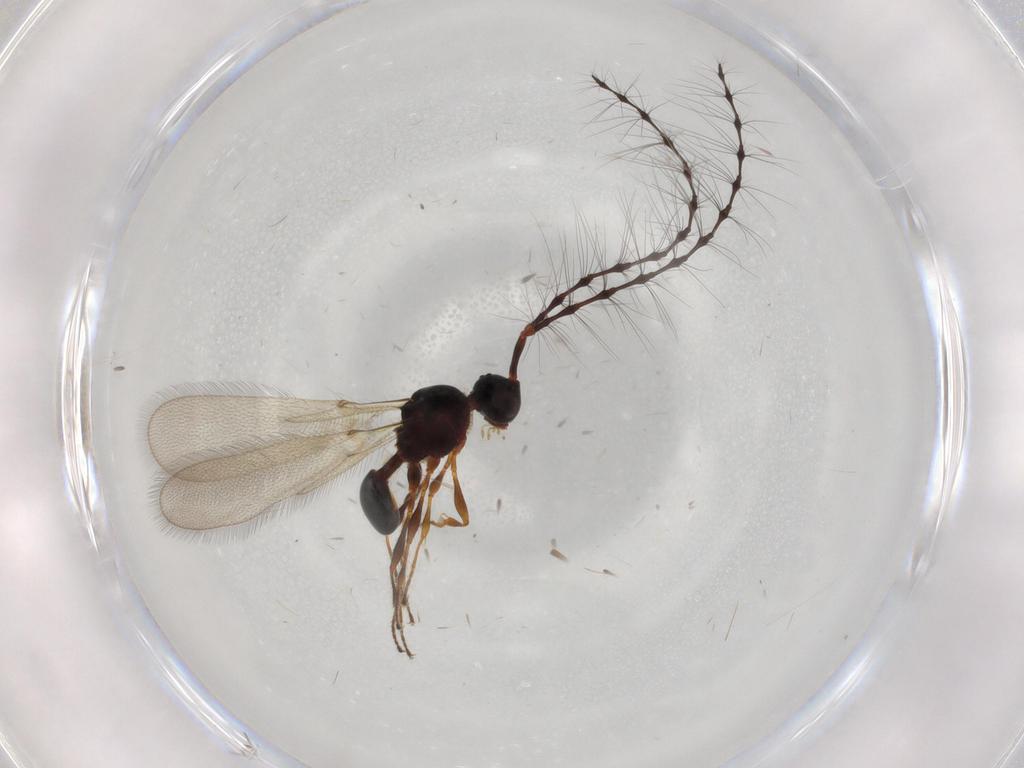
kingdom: Animalia
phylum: Arthropoda
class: Insecta
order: Hymenoptera
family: Diapriidae
